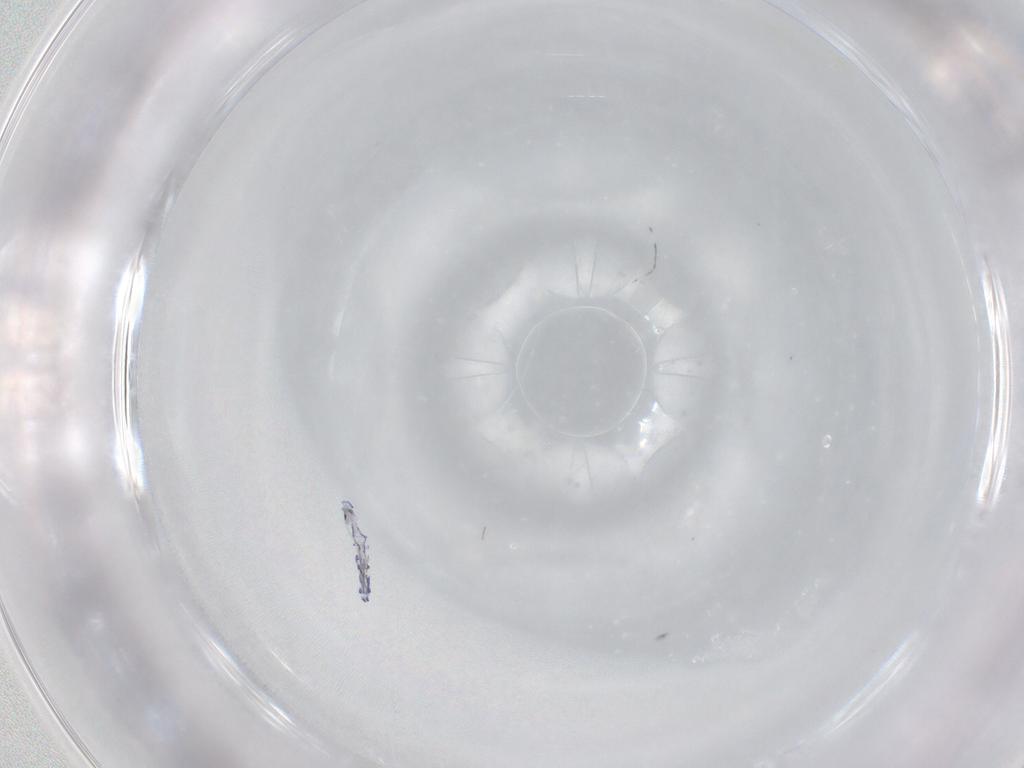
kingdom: Animalia
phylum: Arthropoda
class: Collembola
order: Entomobryomorpha
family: Entomobryidae
